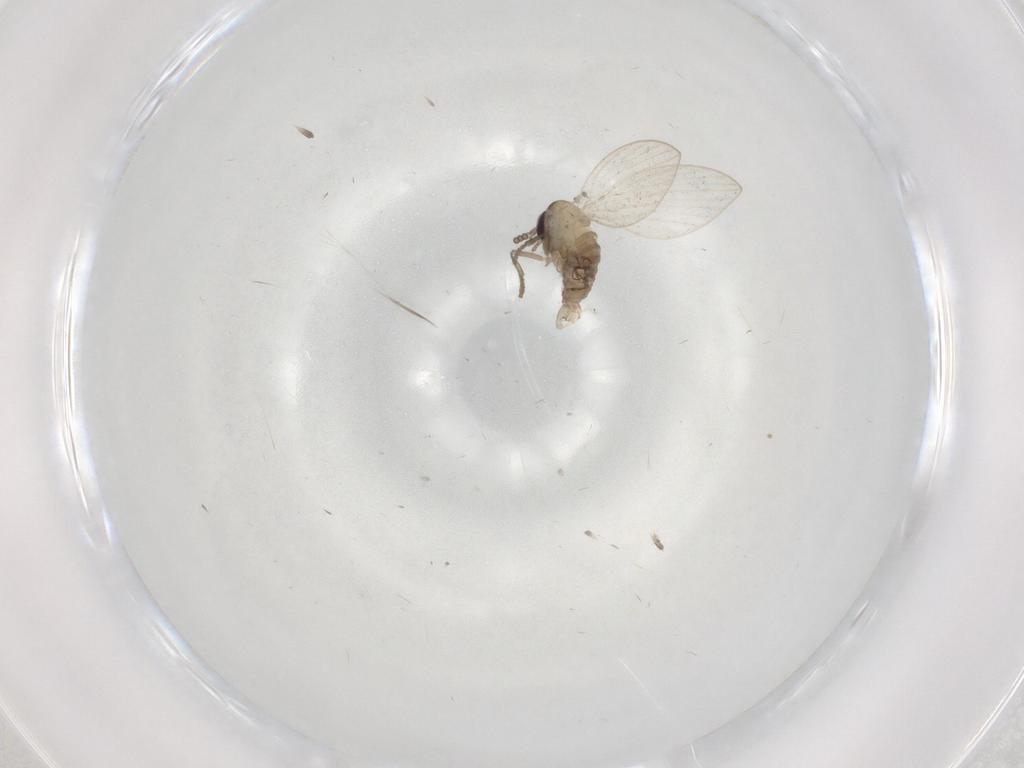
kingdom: Animalia
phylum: Arthropoda
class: Insecta
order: Diptera
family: Psychodidae
